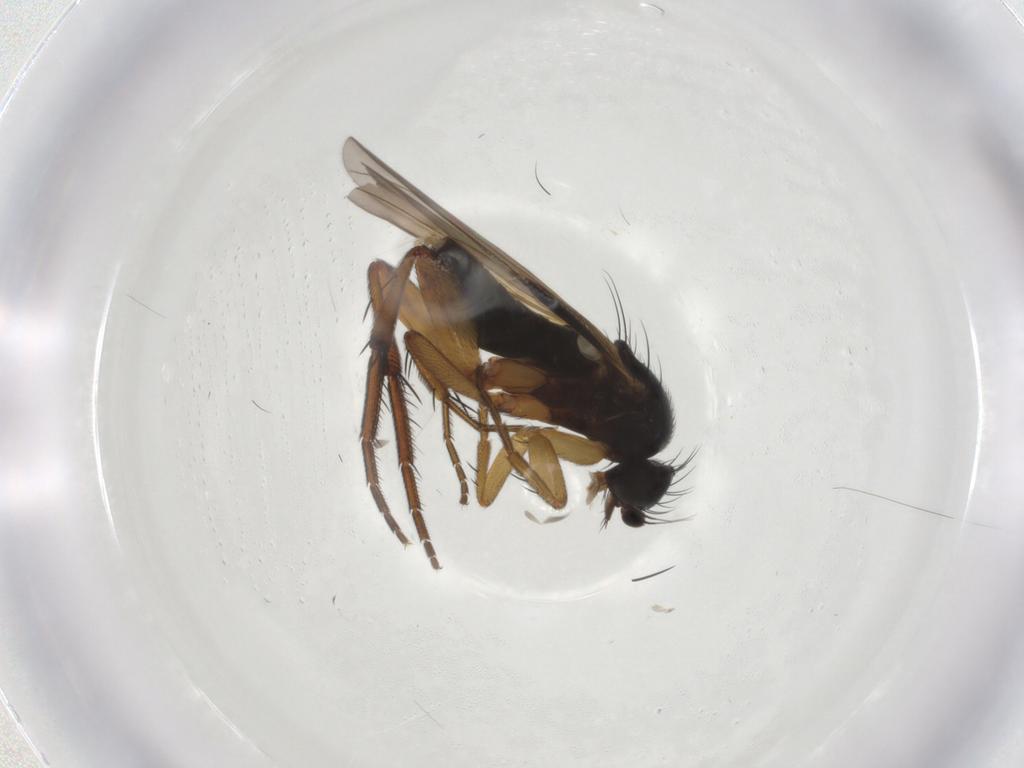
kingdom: Animalia
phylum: Arthropoda
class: Insecta
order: Diptera
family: Phoridae
